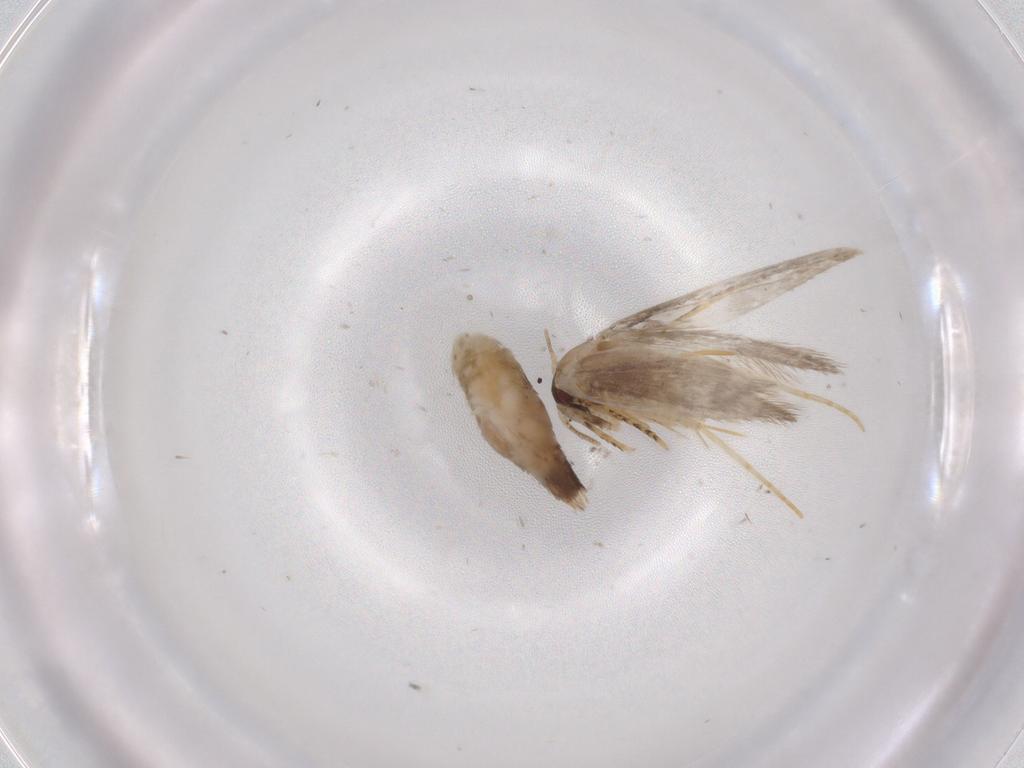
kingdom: Animalia
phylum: Arthropoda
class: Insecta
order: Lepidoptera
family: Tineidae
